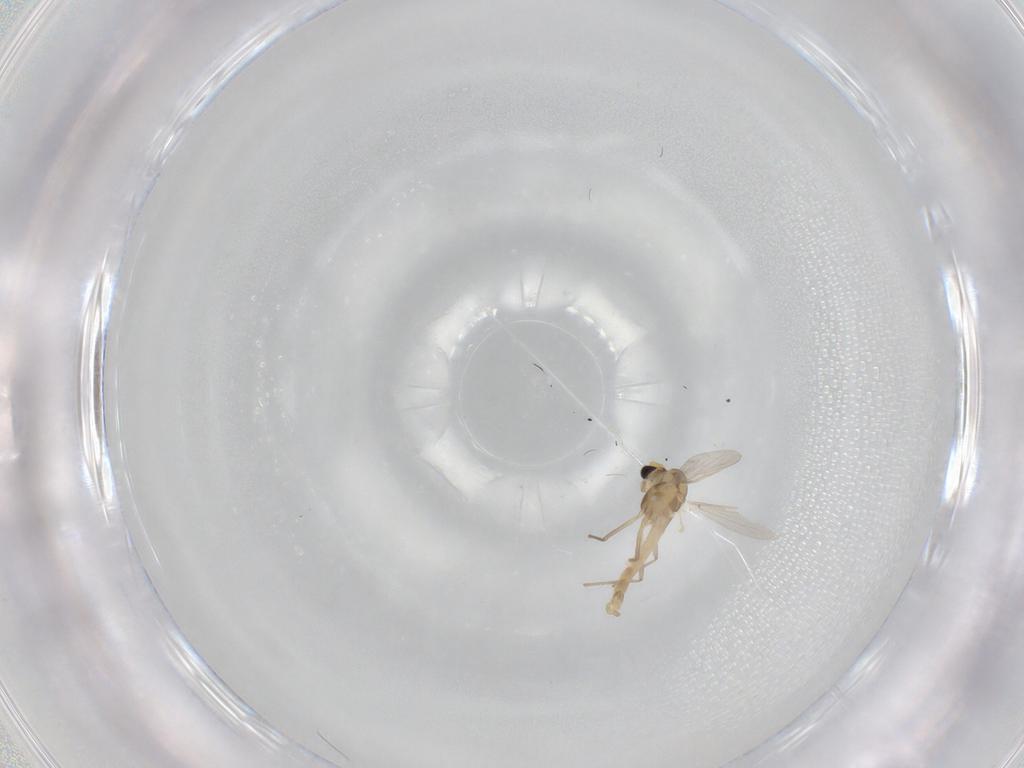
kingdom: Animalia
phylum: Arthropoda
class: Insecta
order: Diptera
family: Chironomidae
